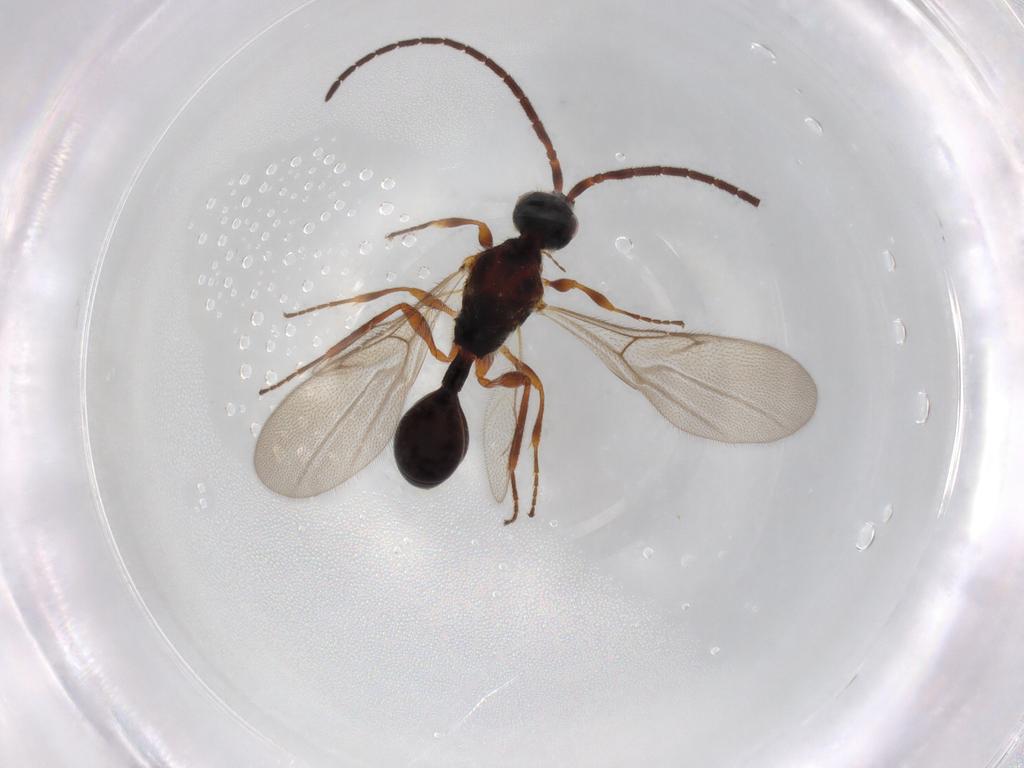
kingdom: Animalia
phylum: Arthropoda
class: Insecta
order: Hymenoptera
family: Diapriidae
